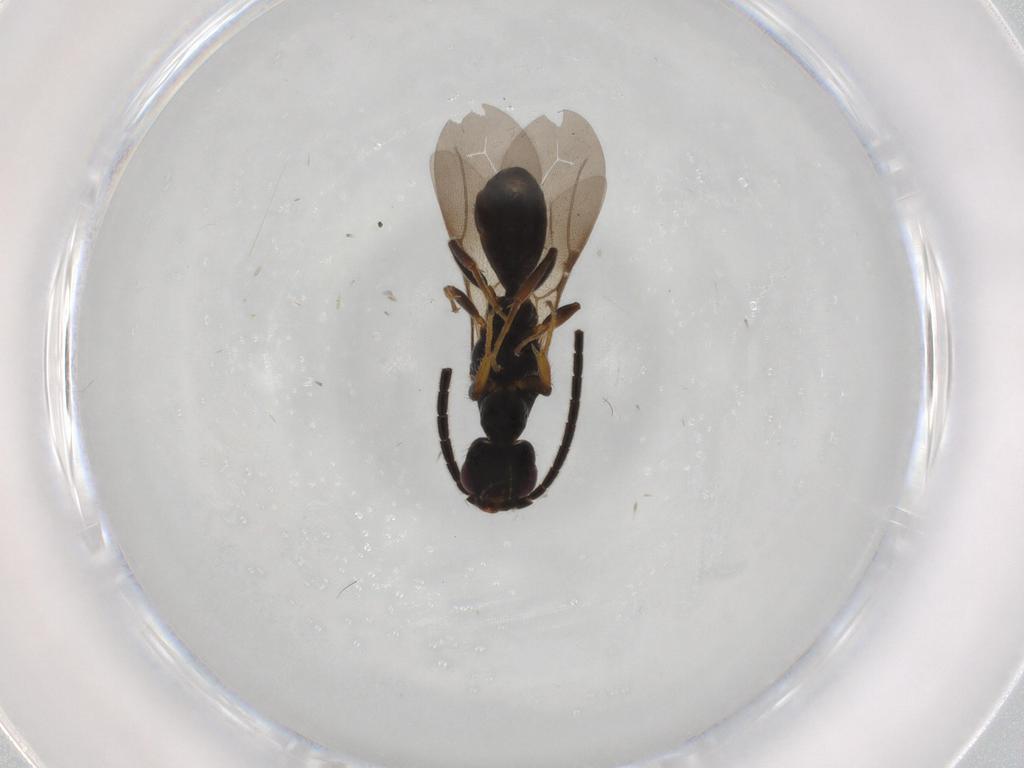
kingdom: Animalia
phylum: Arthropoda
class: Insecta
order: Hymenoptera
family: Bethylidae
